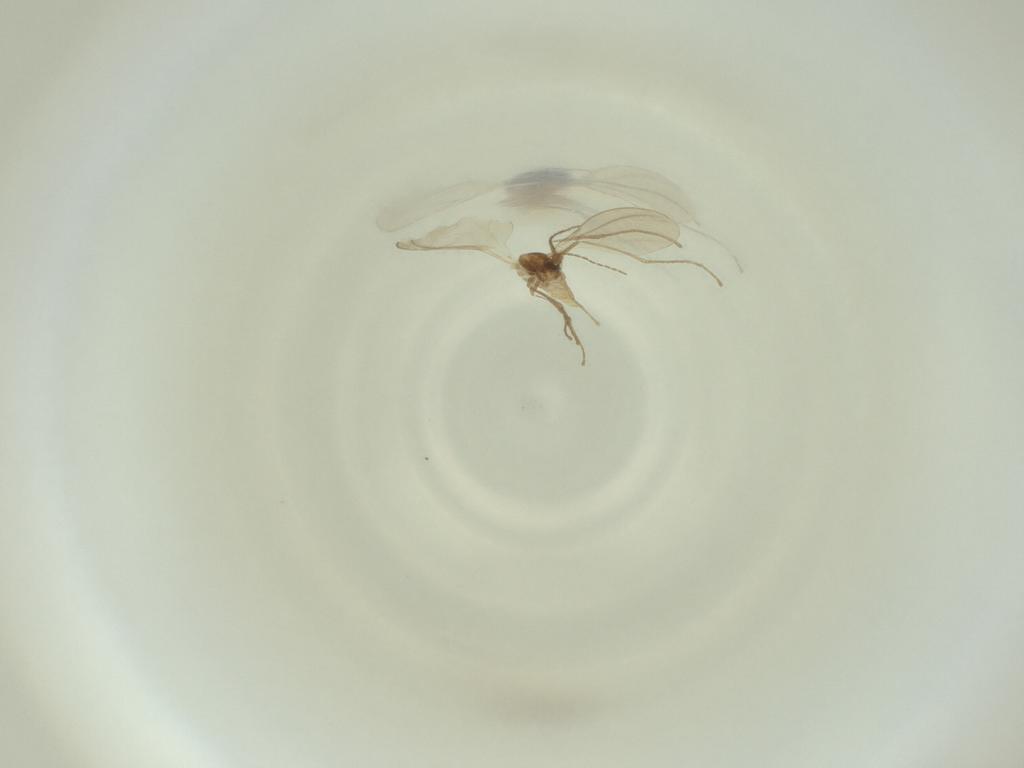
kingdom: Animalia
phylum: Arthropoda
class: Insecta
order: Diptera
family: Cecidomyiidae
